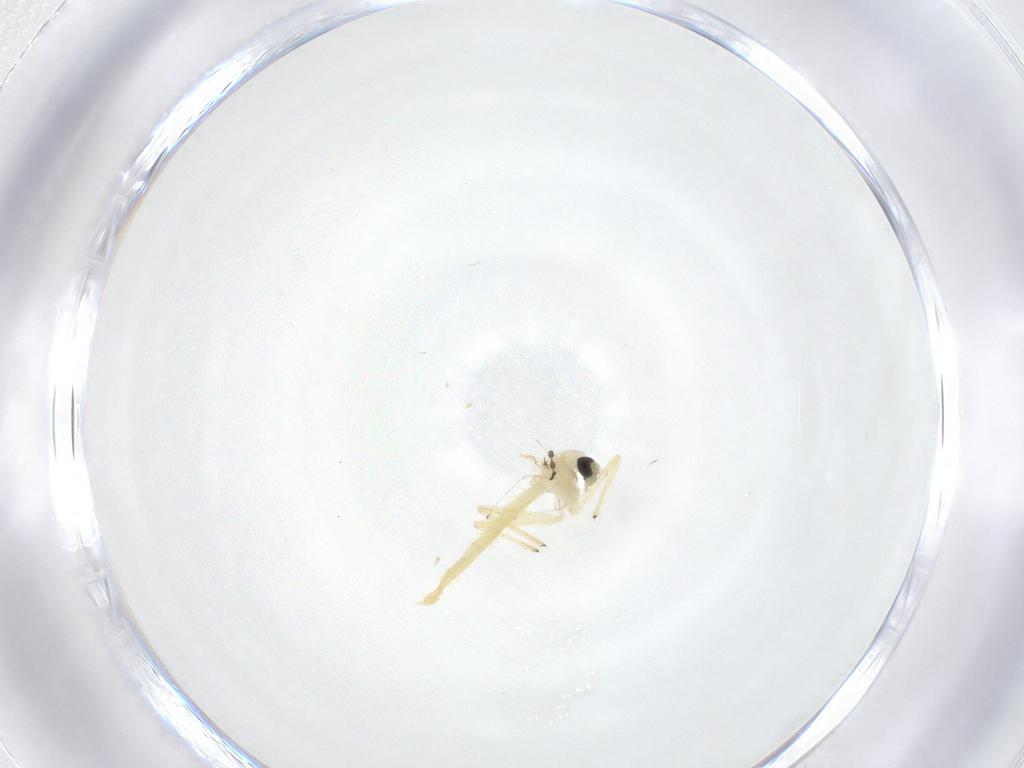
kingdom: Animalia
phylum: Arthropoda
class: Insecta
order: Diptera
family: Chironomidae
